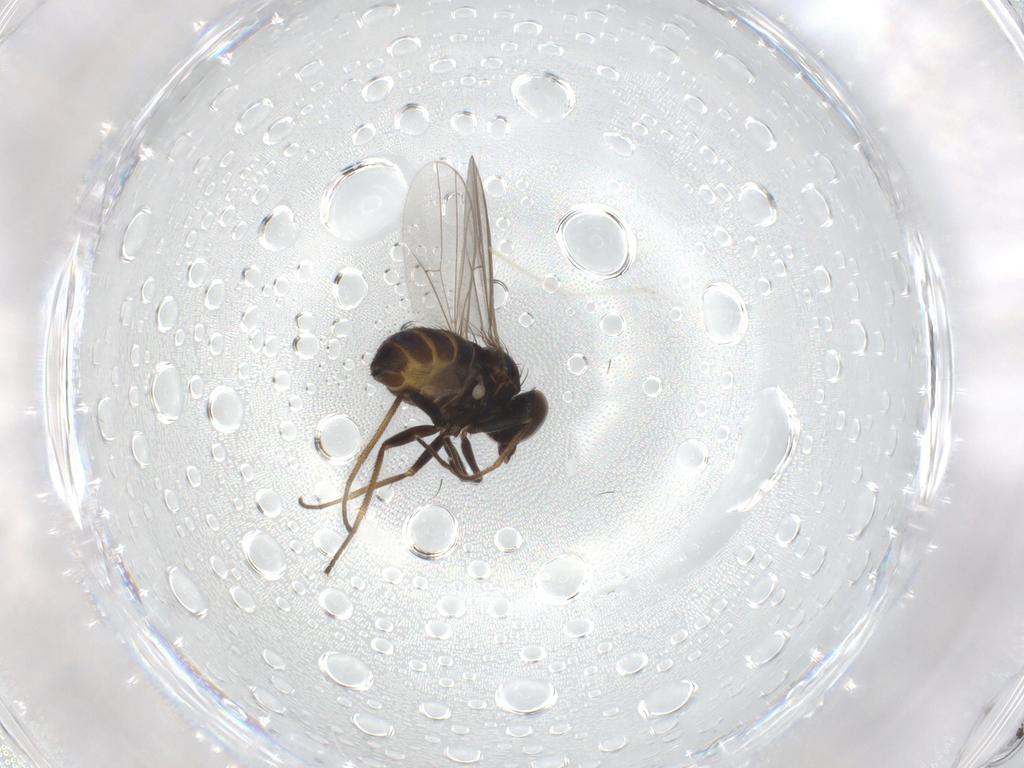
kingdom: Animalia
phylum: Arthropoda
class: Insecta
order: Diptera
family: Dolichopodidae
